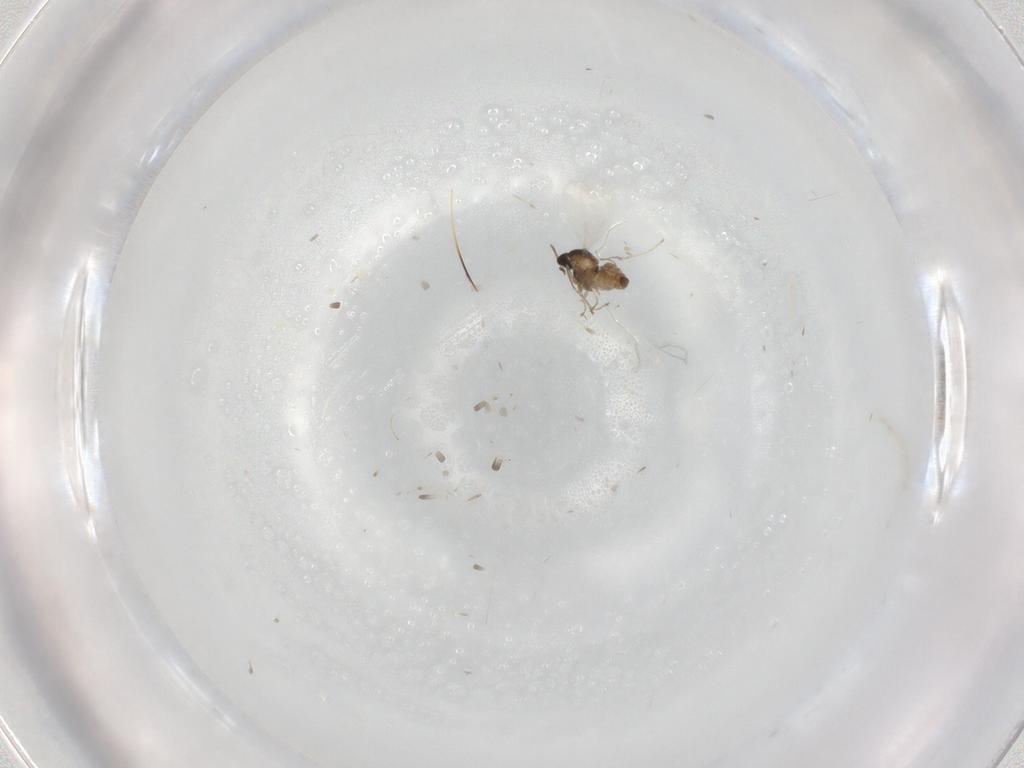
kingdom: Animalia
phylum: Arthropoda
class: Insecta
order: Diptera
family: Cecidomyiidae
